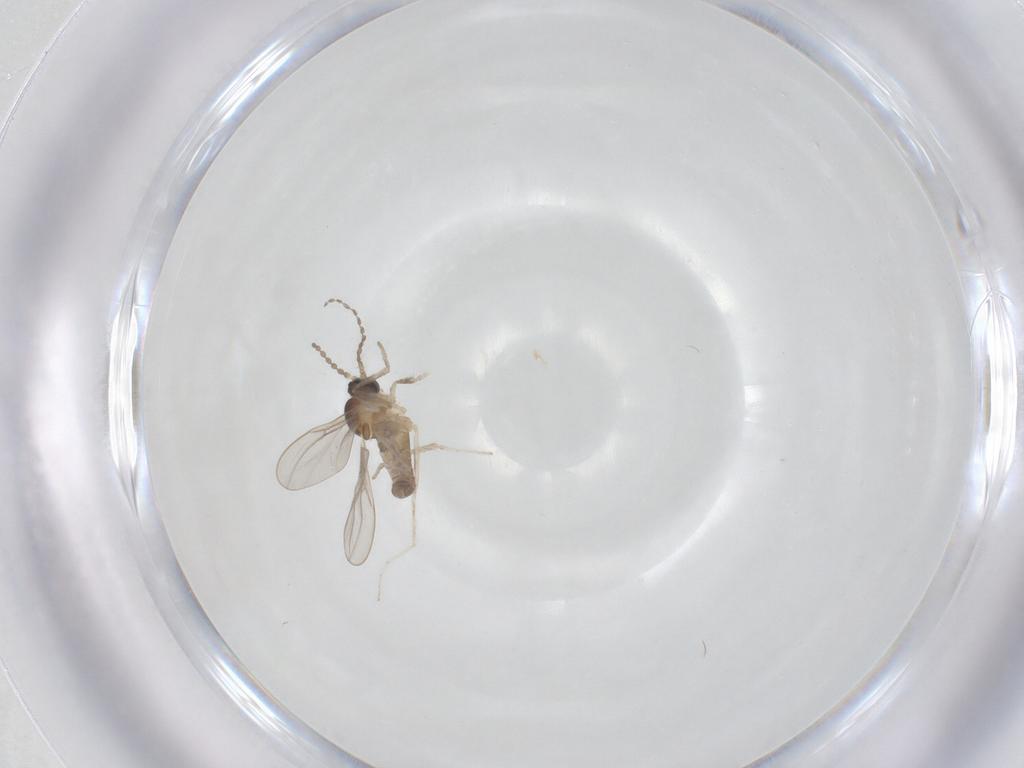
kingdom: Animalia
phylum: Arthropoda
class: Insecta
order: Diptera
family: Cecidomyiidae
